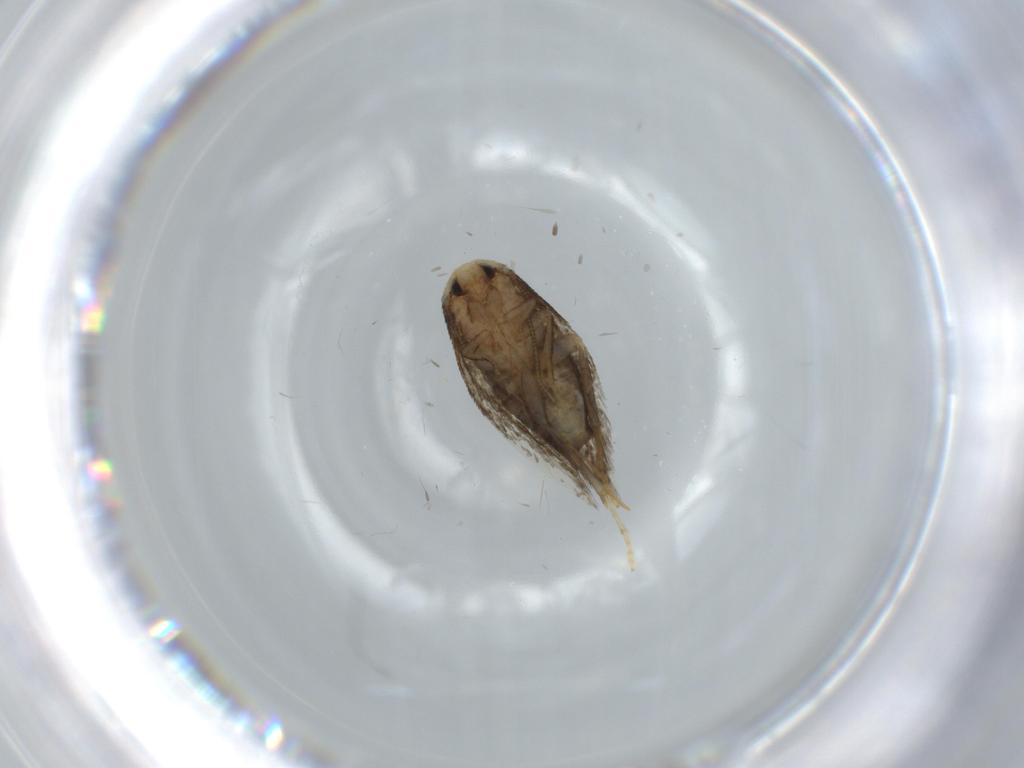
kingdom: Animalia
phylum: Arthropoda
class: Insecta
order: Lepidoptera
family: Nepticulidae
